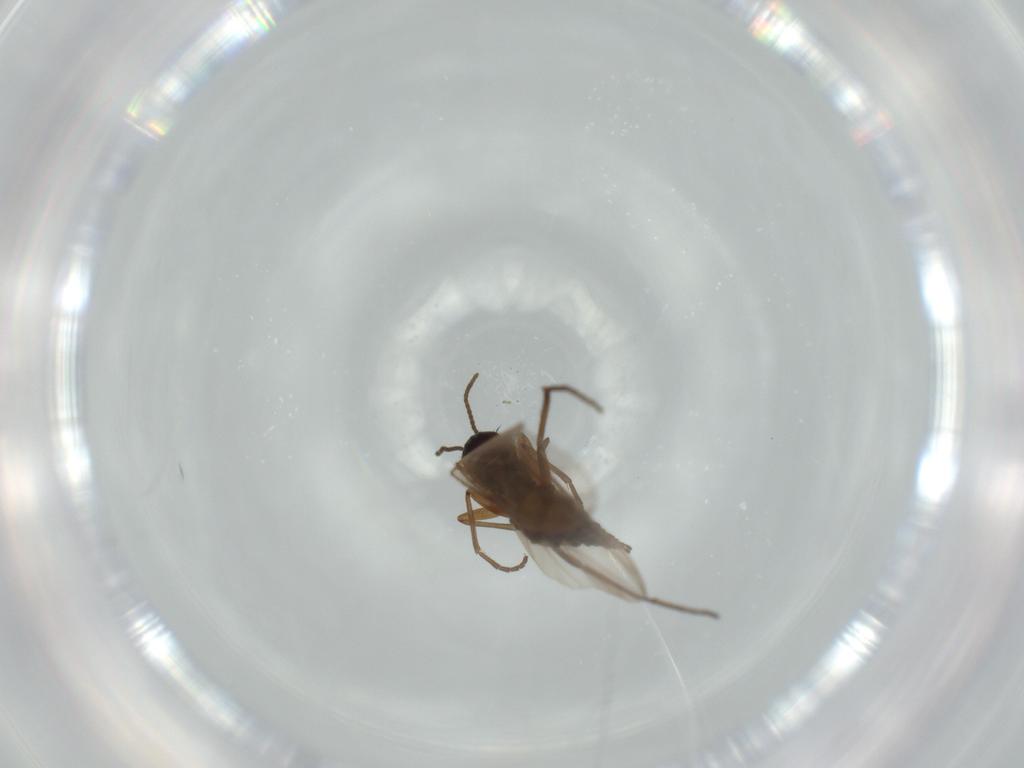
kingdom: Animalia
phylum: Arthropoda
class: Insecta
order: Diptera
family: Sciaridae
